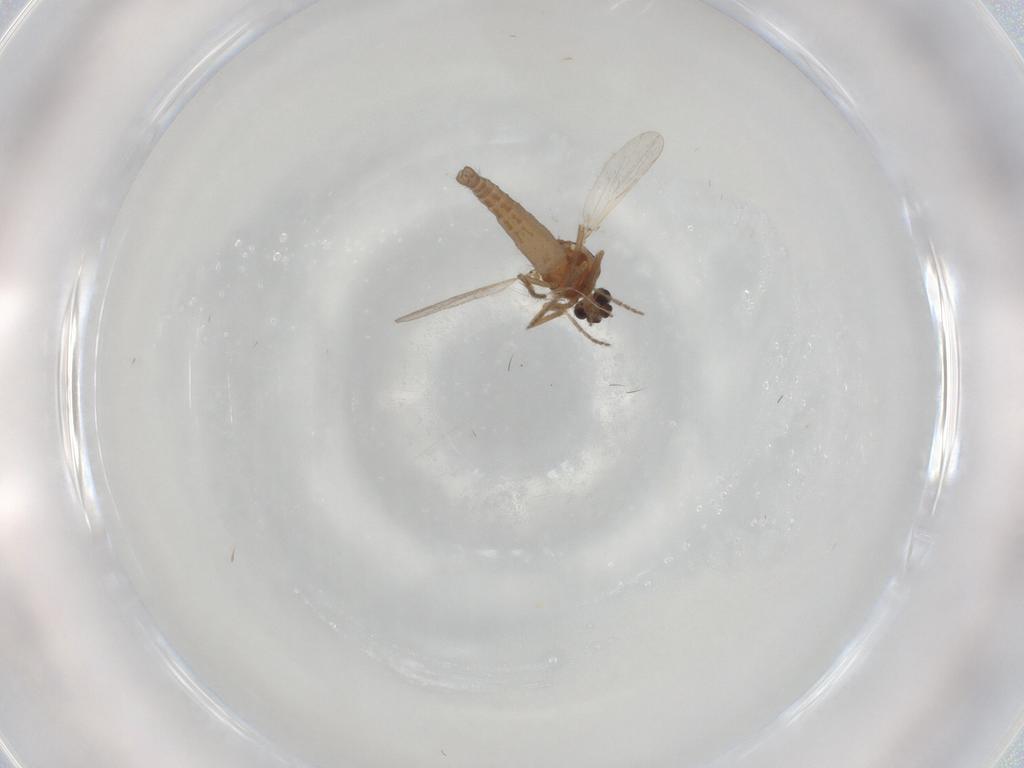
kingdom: Animalia
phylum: Arthropoda
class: Insecta
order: Diptera
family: Ceratopogonidae
